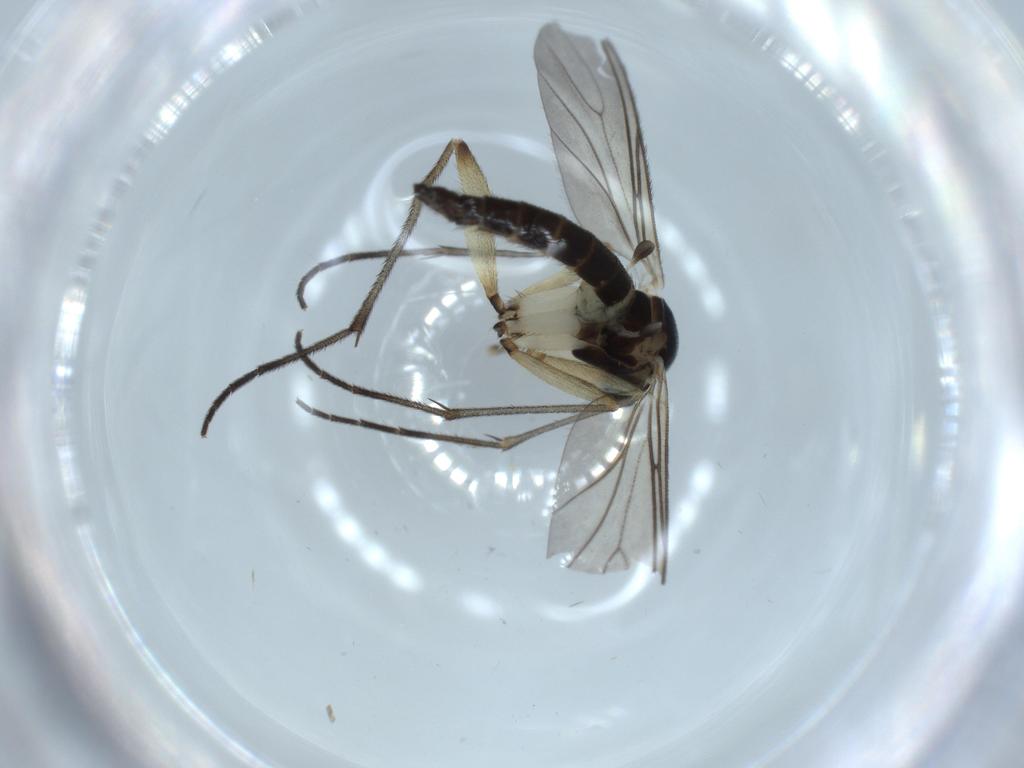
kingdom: Animalia
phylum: Arthropoda
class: Insecta
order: Diptera
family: Sciaridae
